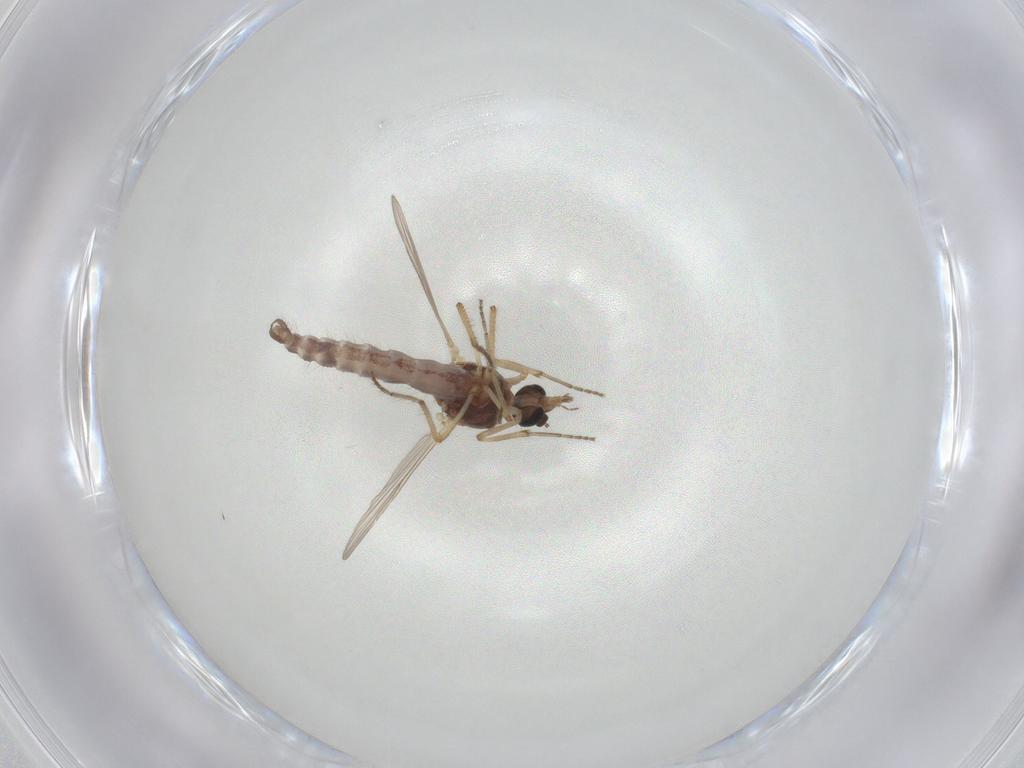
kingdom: Animalia
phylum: Arthropoda
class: Insecta
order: Diptera
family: Ceratopogonidae
